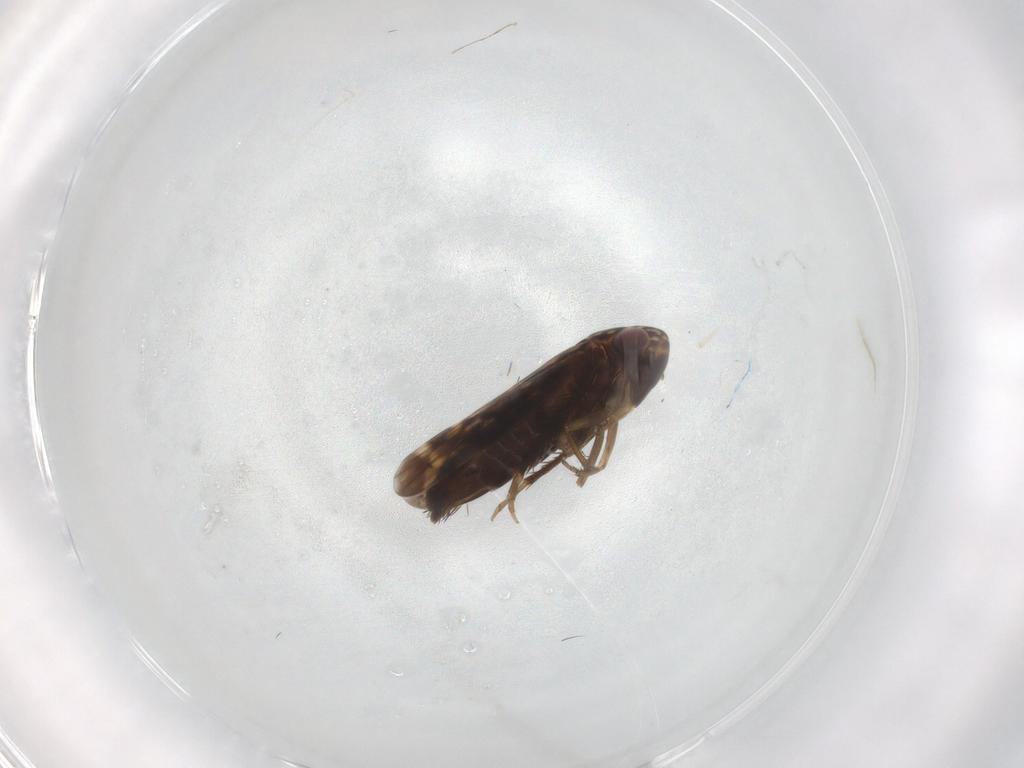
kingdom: Animalia
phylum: Arthropoda
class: Insecta
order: Hemiptera
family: Cicadellidae
